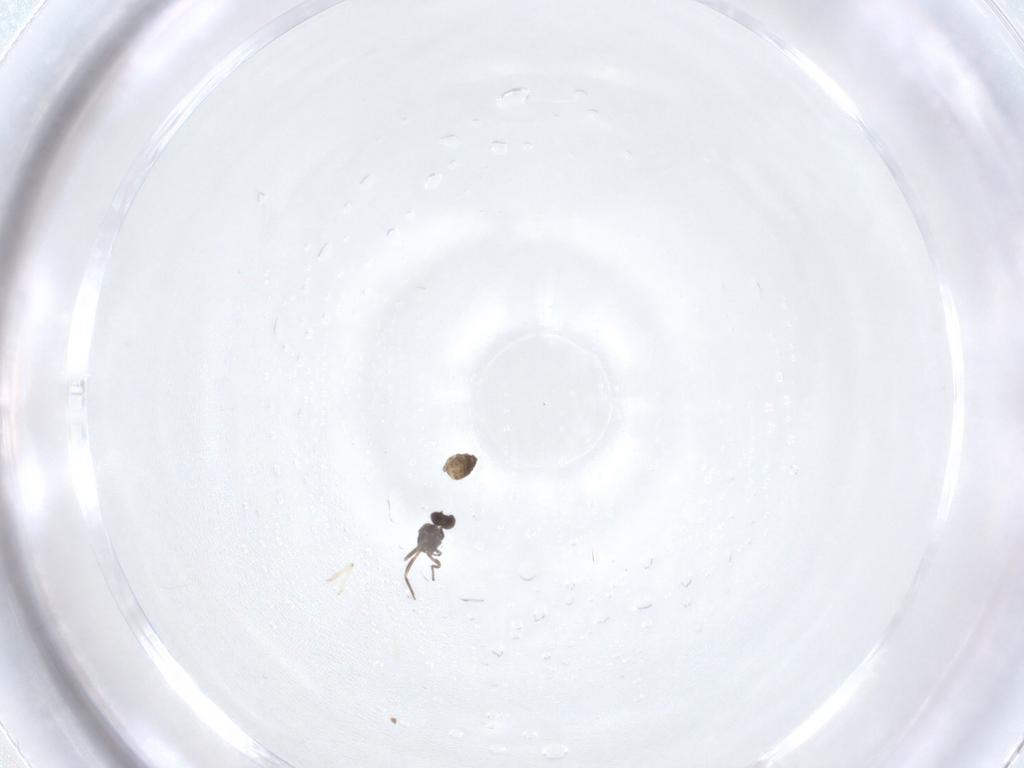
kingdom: Animalia
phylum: Arthropoda
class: Insecta
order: Hymenoptera
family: Mymaridae
